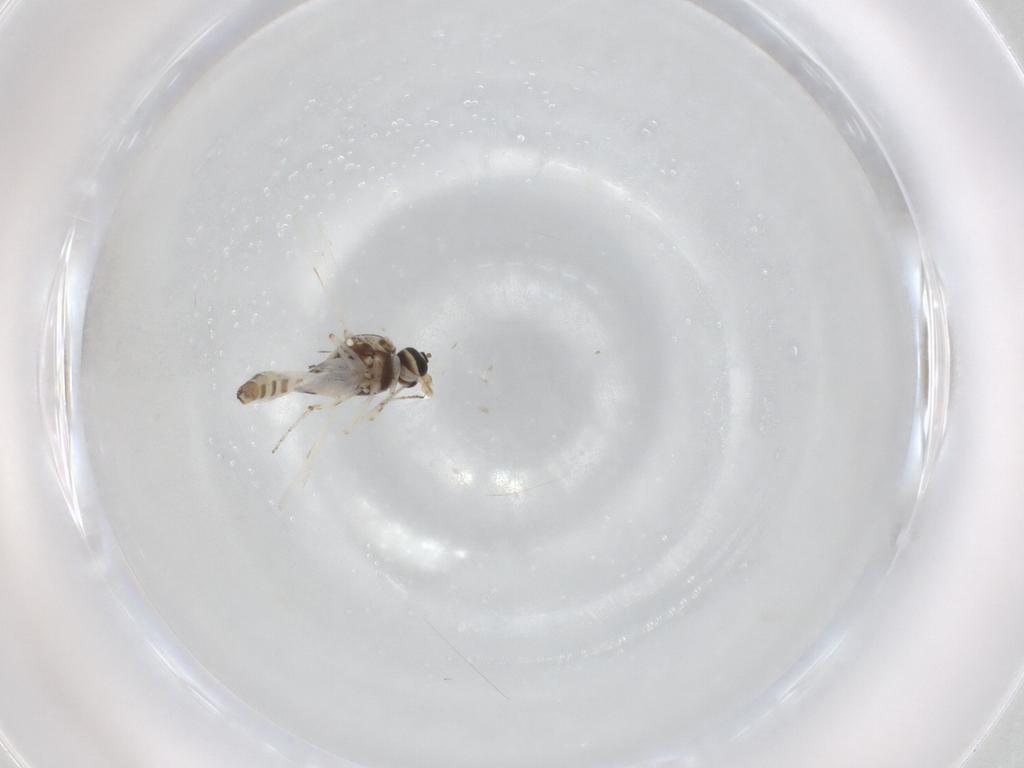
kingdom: Animalia
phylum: Arthropoda
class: Insecta
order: Diptera
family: Ceratopogonidae
